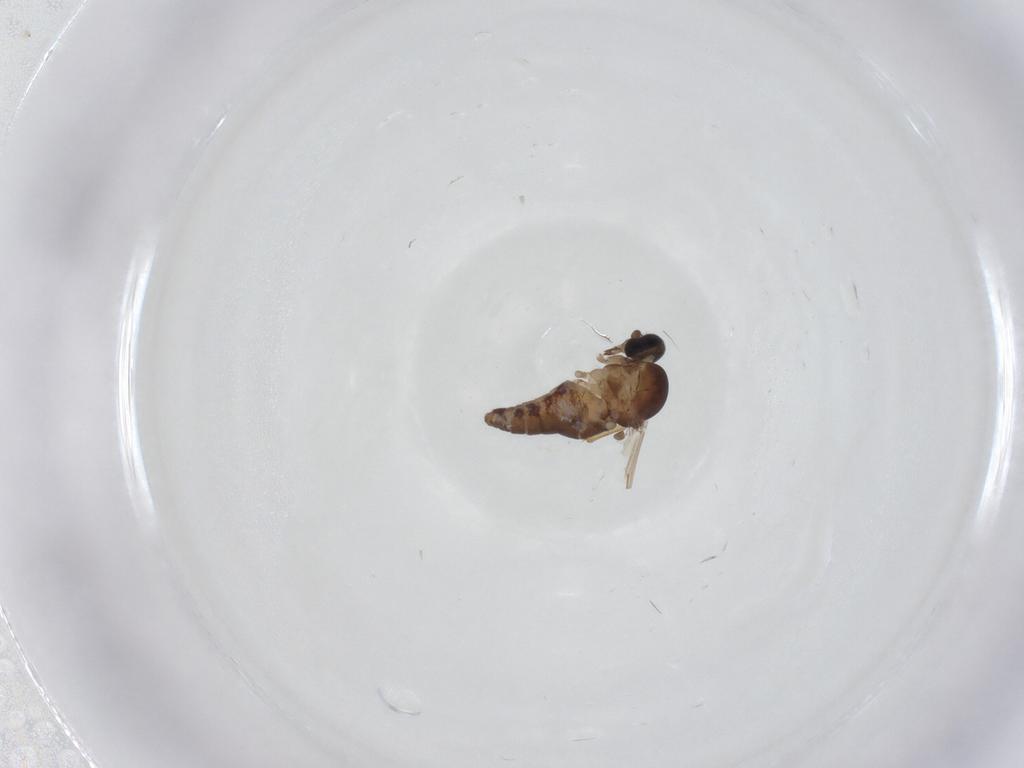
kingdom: Animalia
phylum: Arthropoda
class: Insecta
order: Diptera
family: Ceratopogonidae
